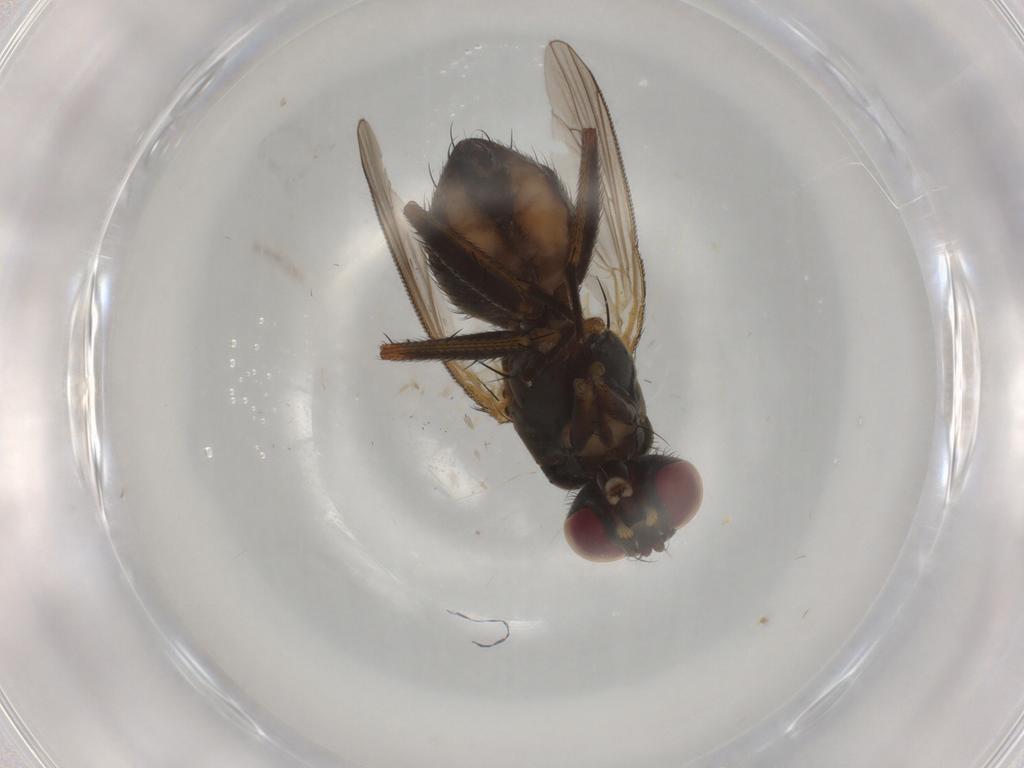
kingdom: Animalia
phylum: Arthropoda
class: Insecta
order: Diptera
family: Muscidae
